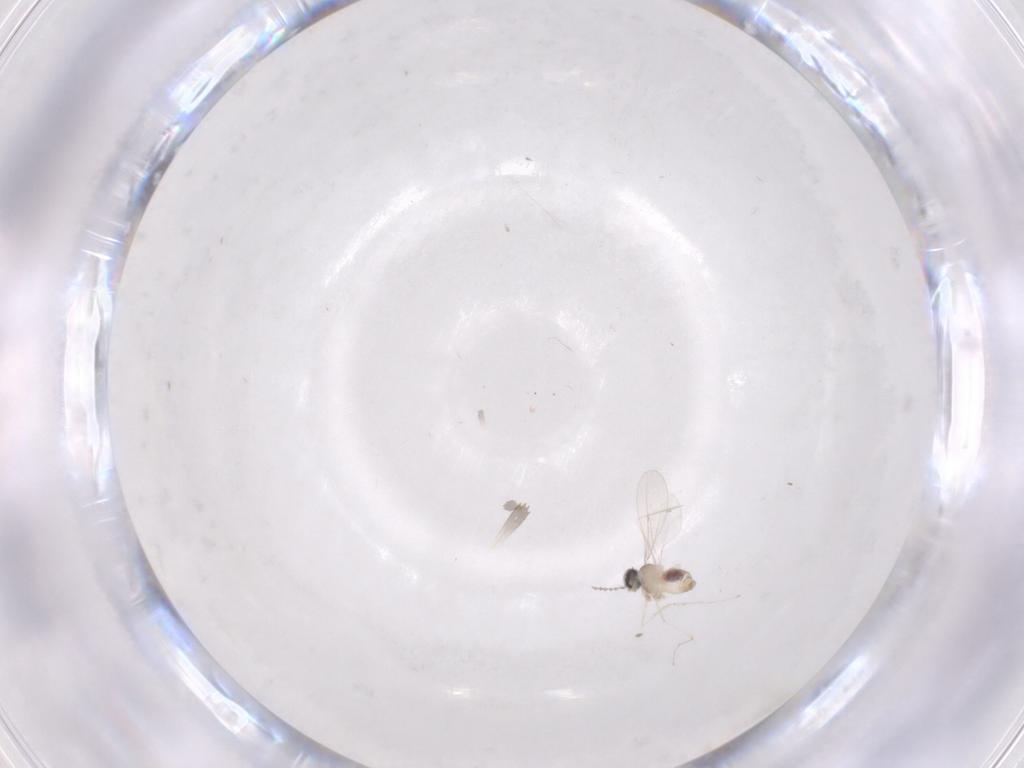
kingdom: Animalia
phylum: Arthropoda
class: Insecta
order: Diptera
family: Cecidomyiidae
